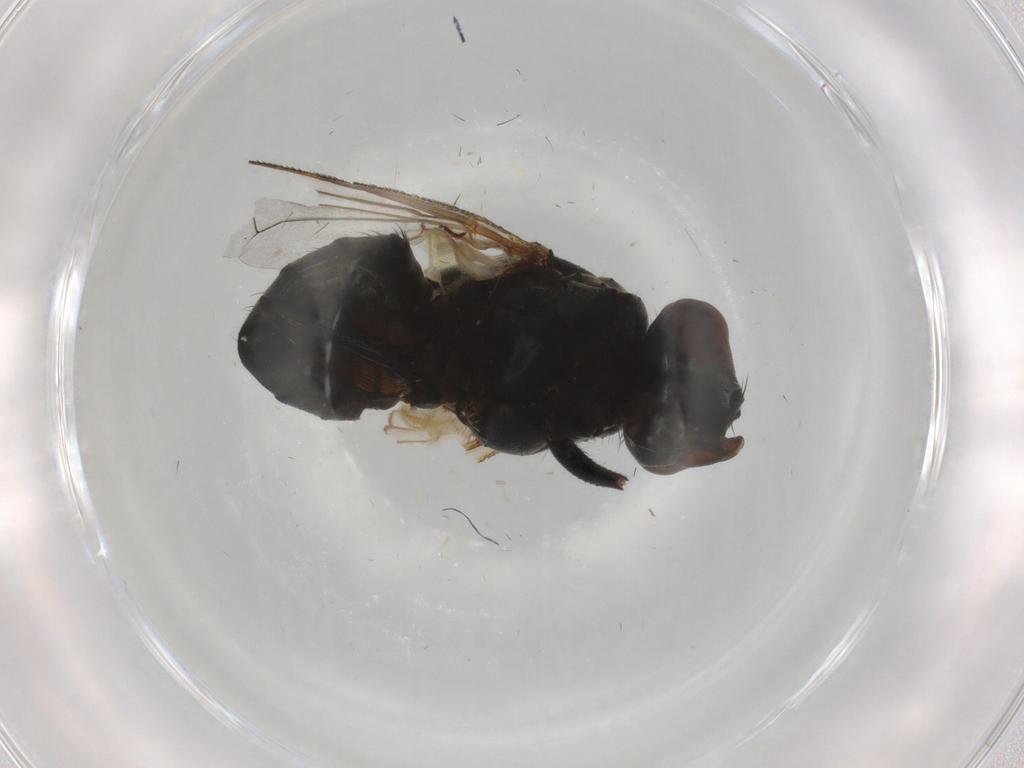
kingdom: Animalia
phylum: Arthropoda
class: Insecta
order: Diptera
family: Muscidae
